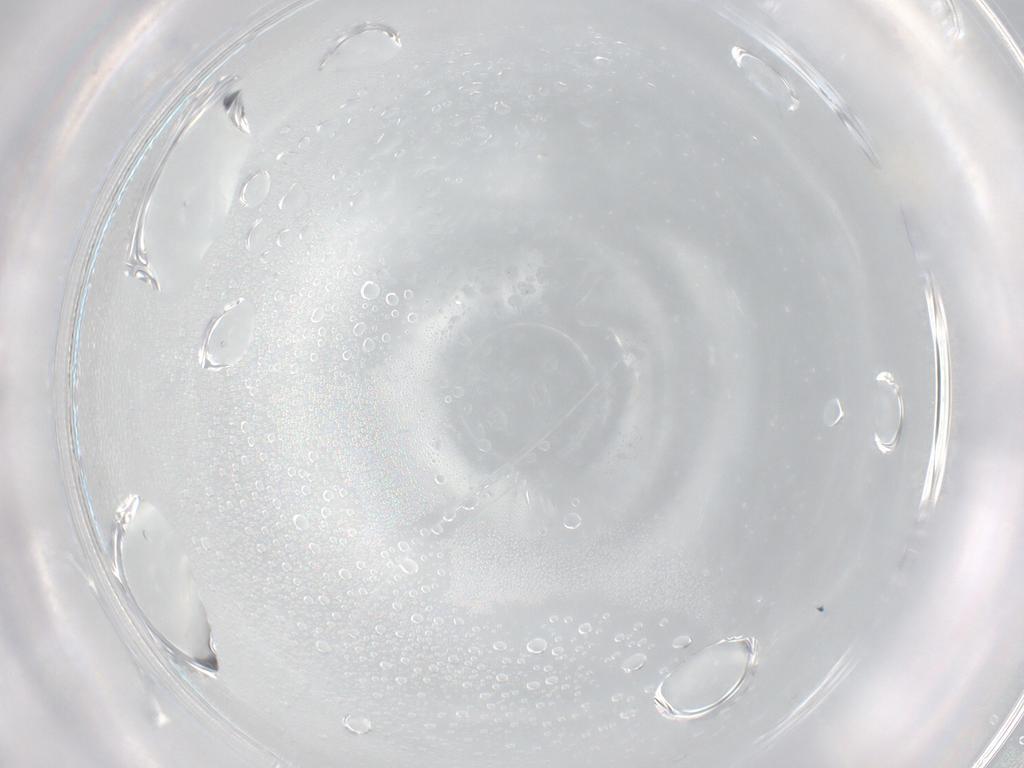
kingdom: Animalia
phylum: Arthropoda
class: Insecta
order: Thysanoptera
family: Thripidae
